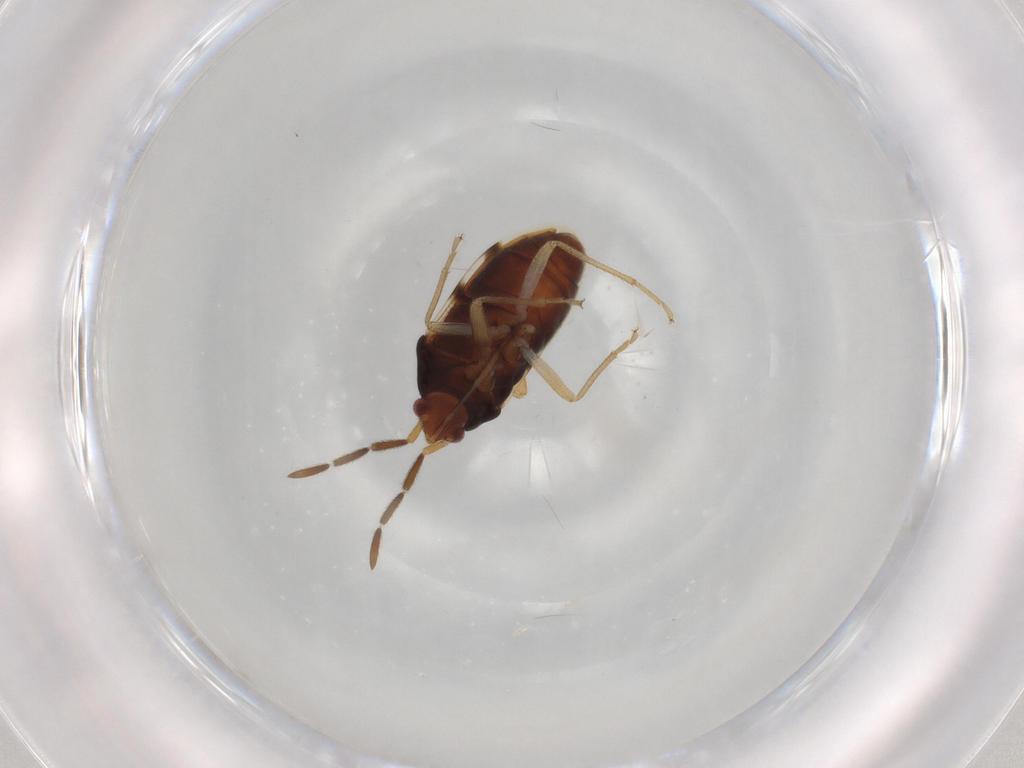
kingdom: Animalia
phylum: Arthropoda
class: Insecta
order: Hemiptera
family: Rhyparochromidae
